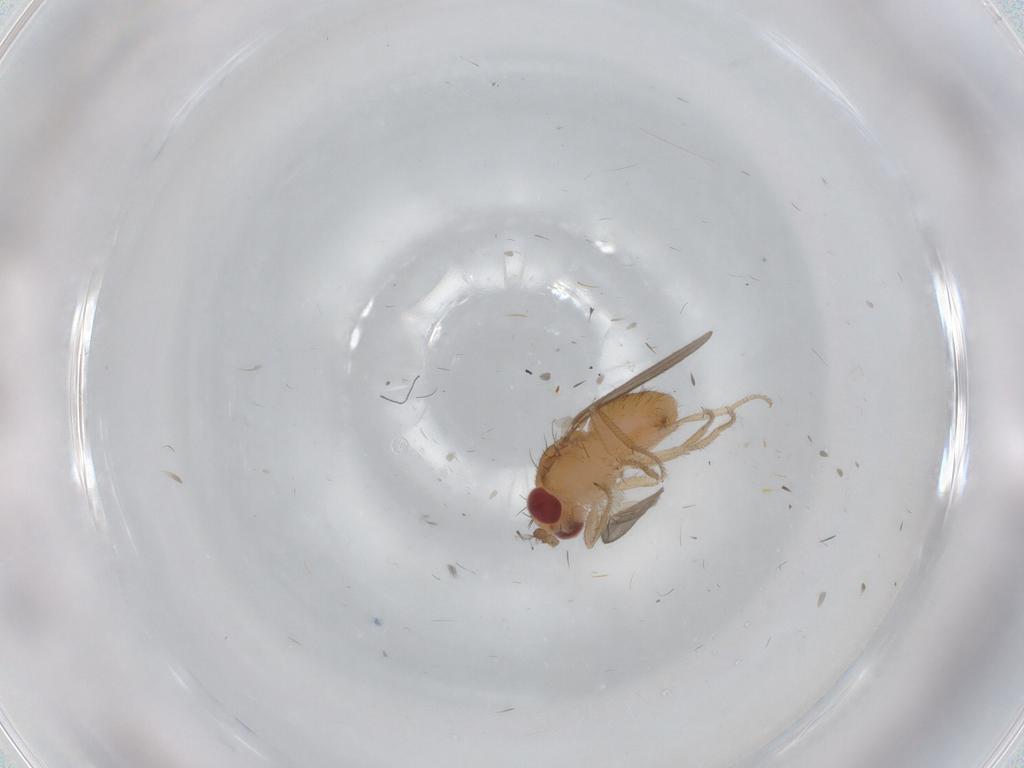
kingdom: Animalia
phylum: Arthropoda
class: Insecta
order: Diptera
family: Drosophilidae
